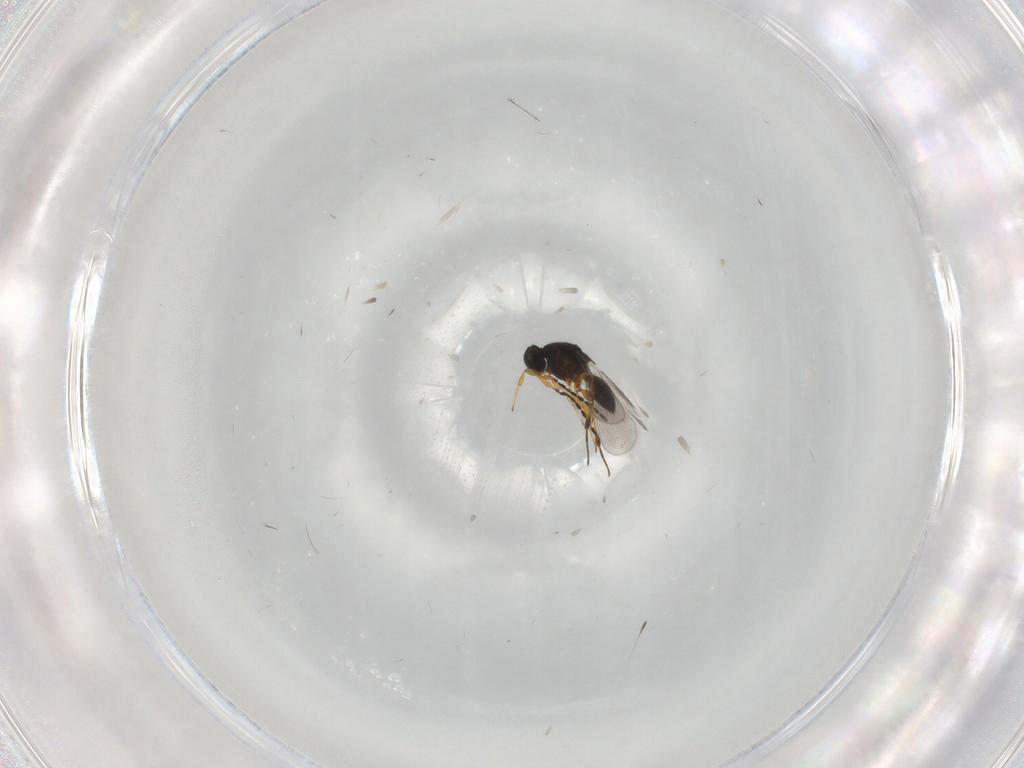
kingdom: Animalia
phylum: Arthropoda
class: Insecta
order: Hymenoptera
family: Platygastridae
